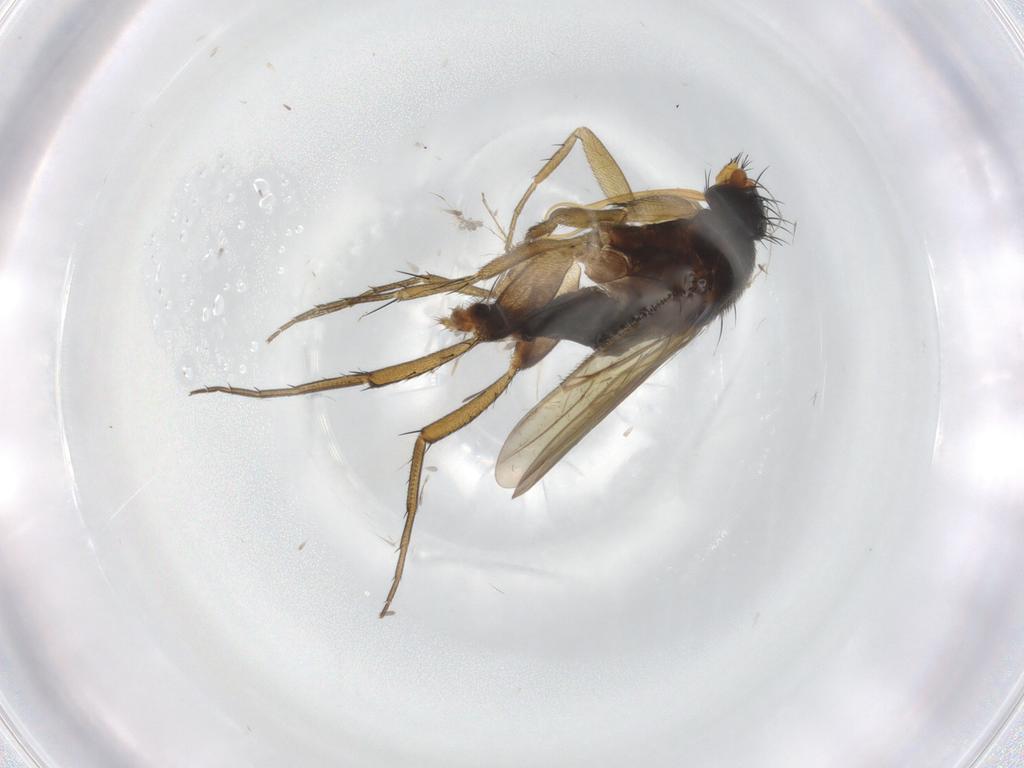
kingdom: Animalia
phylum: Arthropoda
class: Insecta
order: Diptera
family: Phoridae
